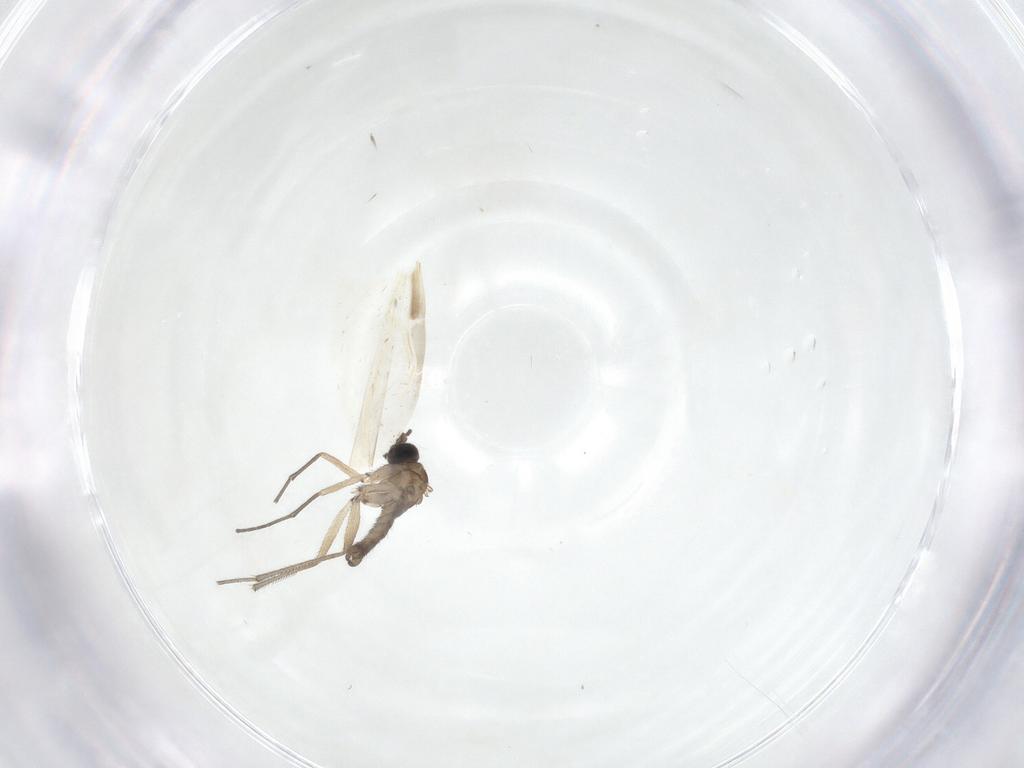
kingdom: Animalia
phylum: Arthropoda
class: Insecta
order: Diptera
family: Sciaridae
